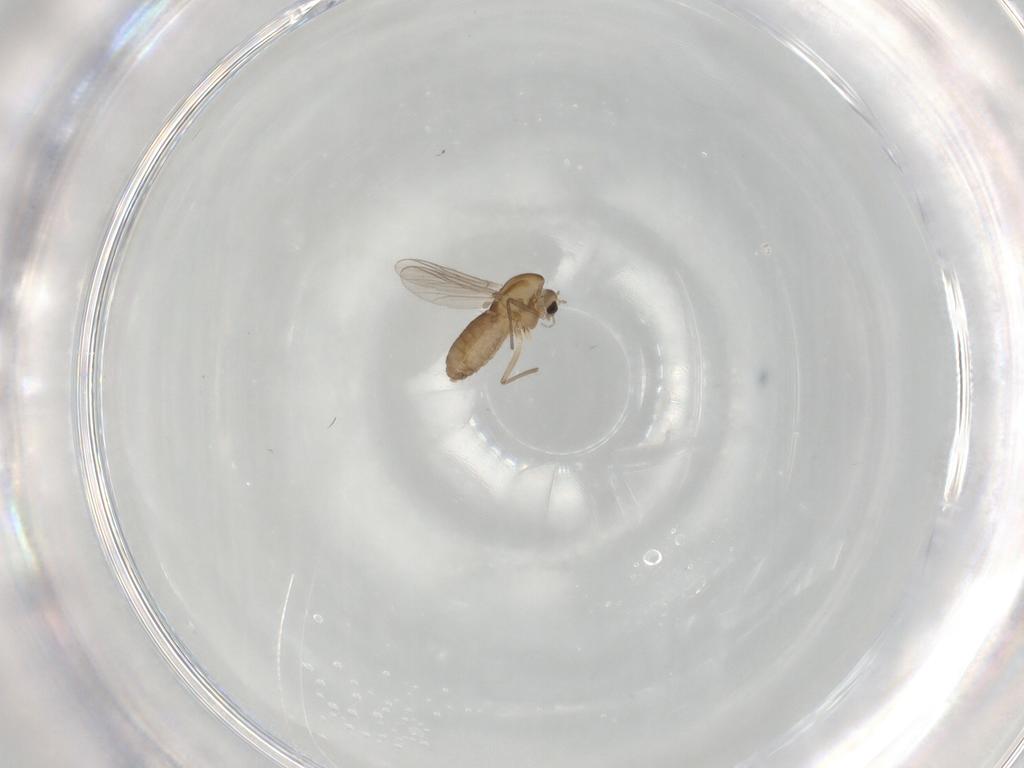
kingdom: Animalia
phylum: Arthropoda
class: Insecta
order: Diptera
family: Chironomidae
